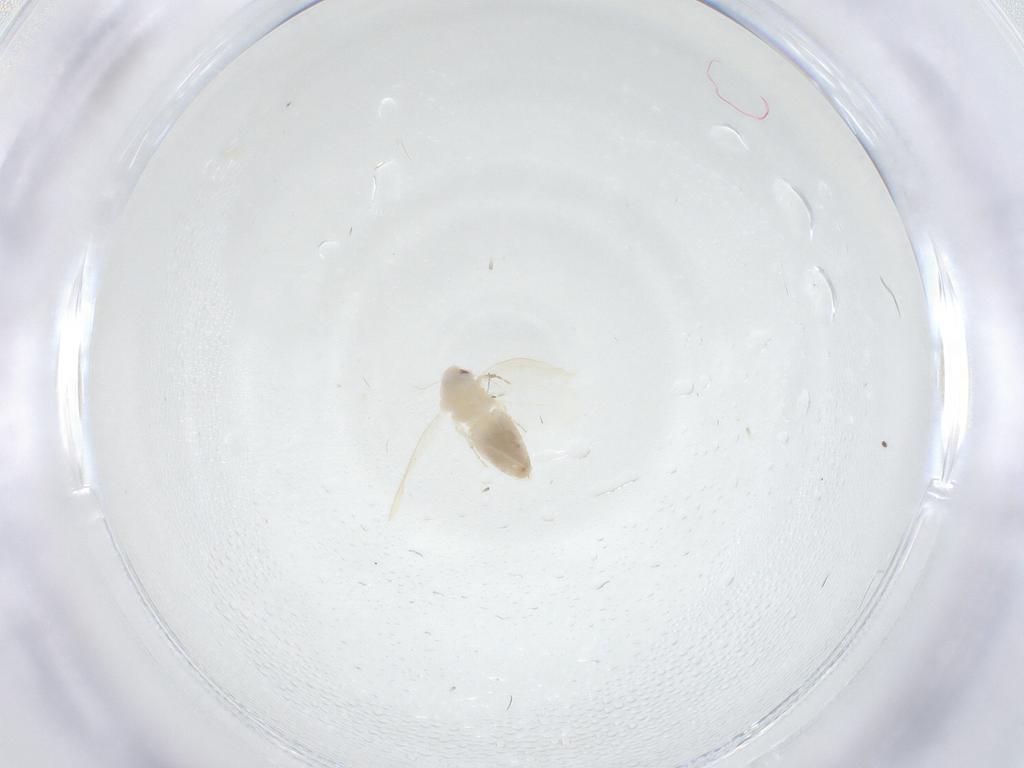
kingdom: Animalia
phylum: Arthropoda
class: Insecta
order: Hemiptera
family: Aleyrodidae
